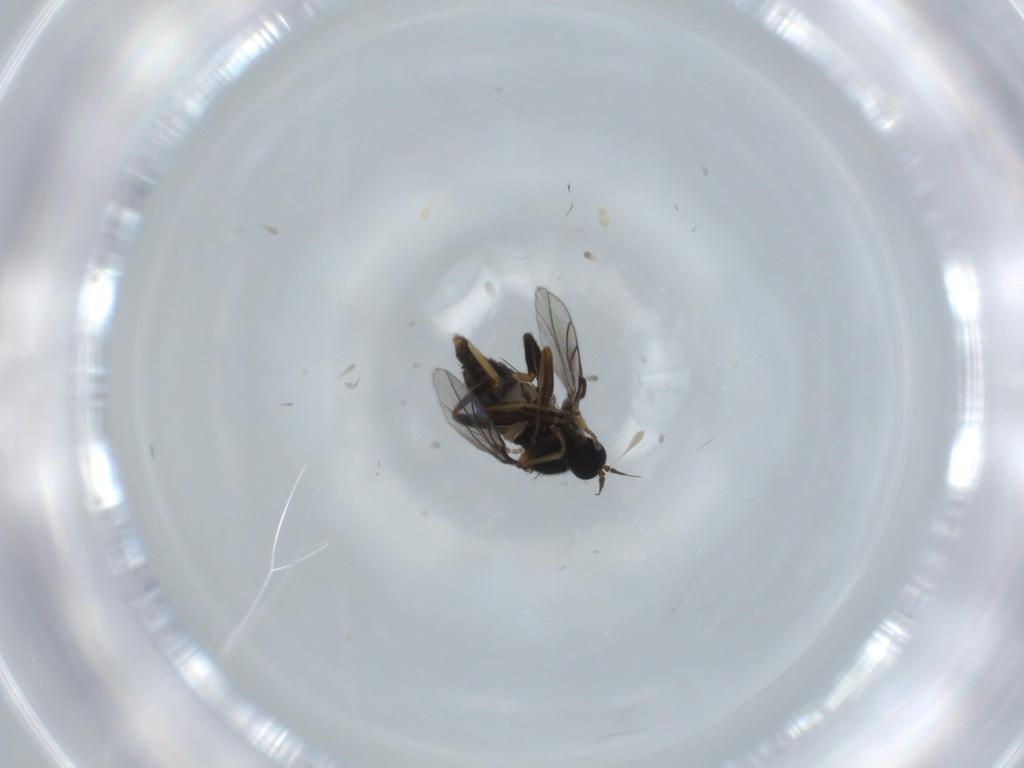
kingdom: Animalia
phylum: Arthropoda
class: Insecta
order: Diptera
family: Hybotidae
